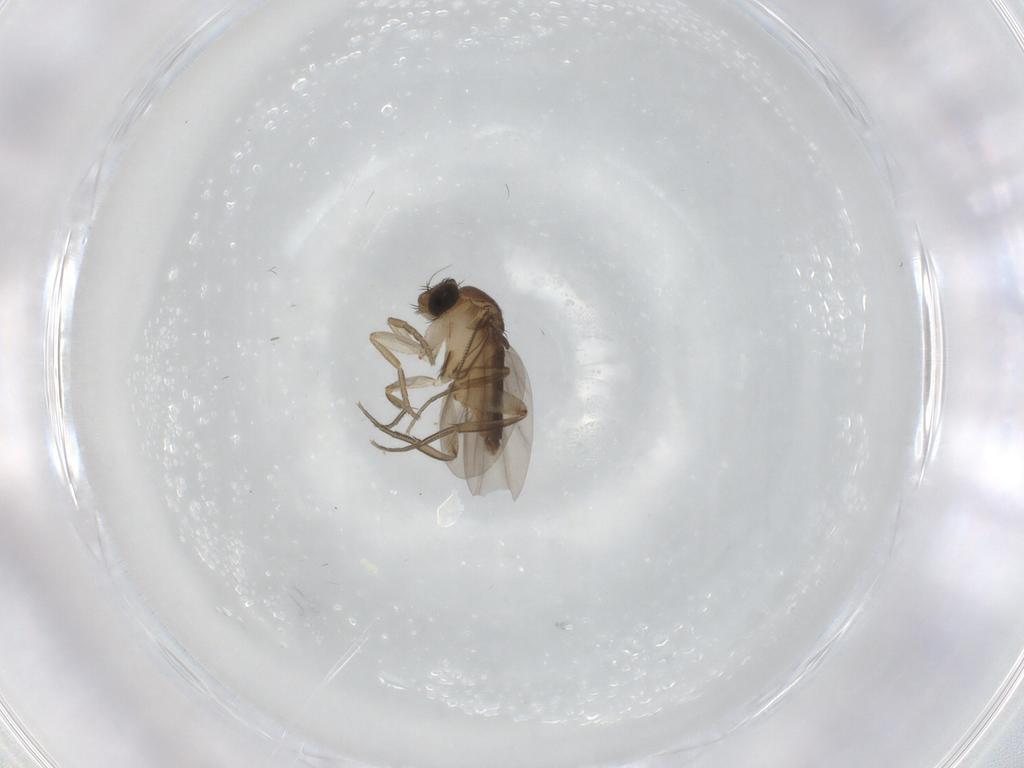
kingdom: Animalia
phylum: Arthropoda
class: Insecta
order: Diptera
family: Phoridae
